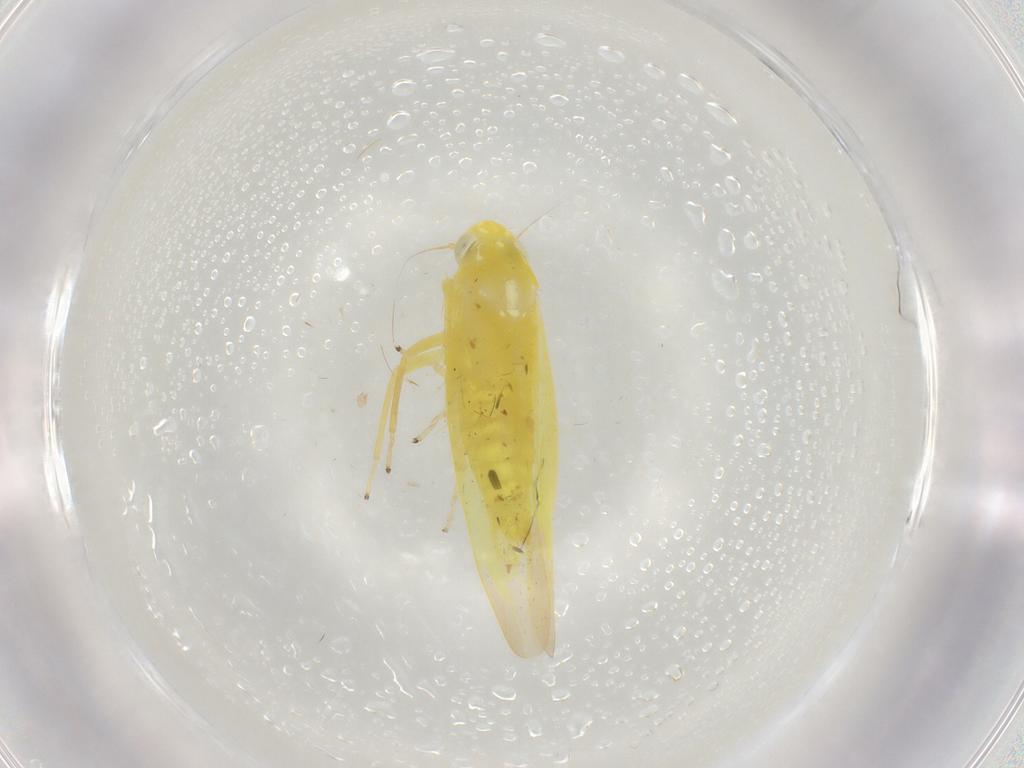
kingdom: Animalia
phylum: Arthropoda
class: Insecta
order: Hemiptera
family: Cicadellidae
